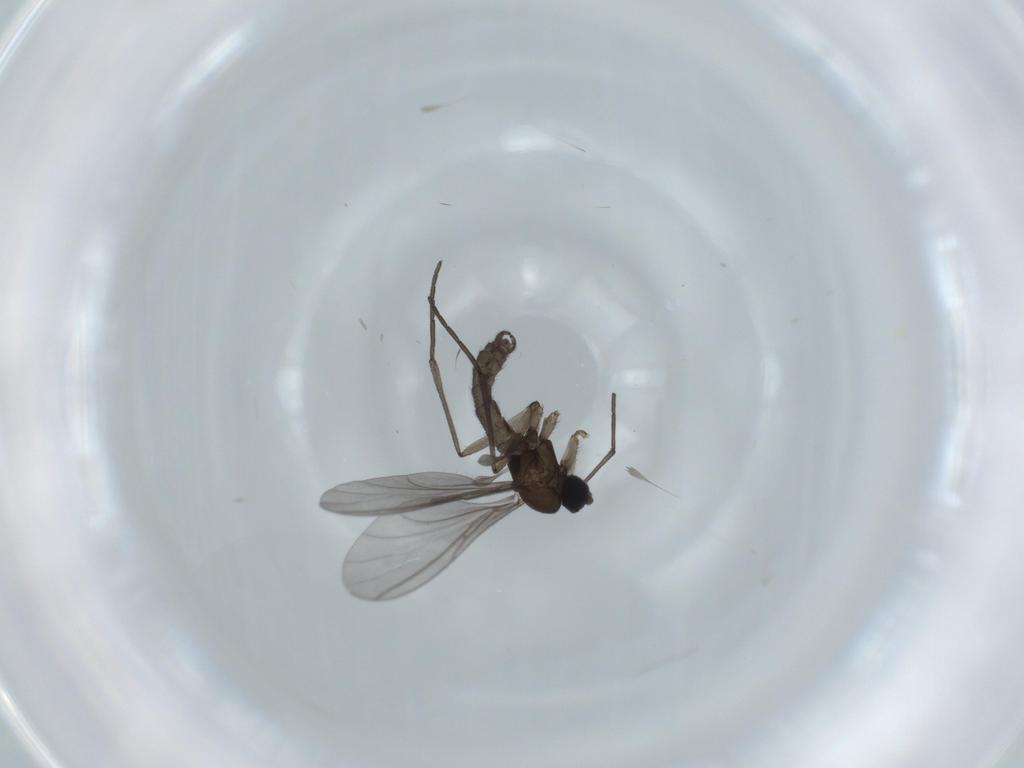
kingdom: Animalia
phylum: Arthropoda
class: Insecta
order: Diptera
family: Sciaridae
